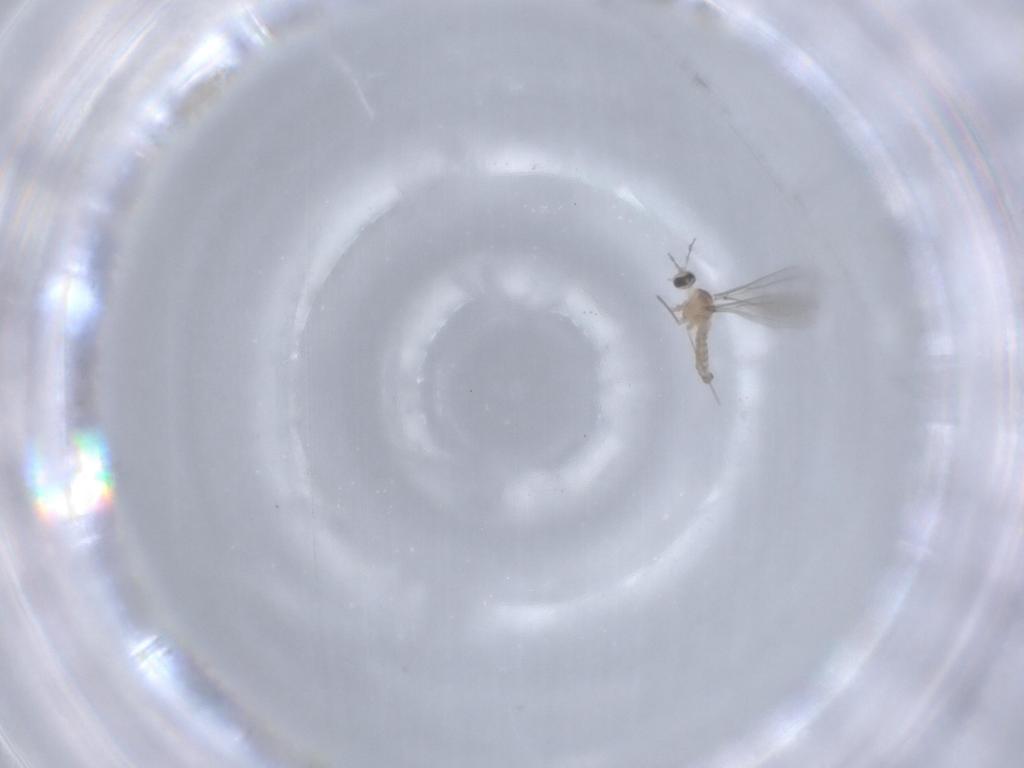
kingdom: Animalia
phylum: Arthropoda
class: Insecta
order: Diptera
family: Cecidomyiidae
